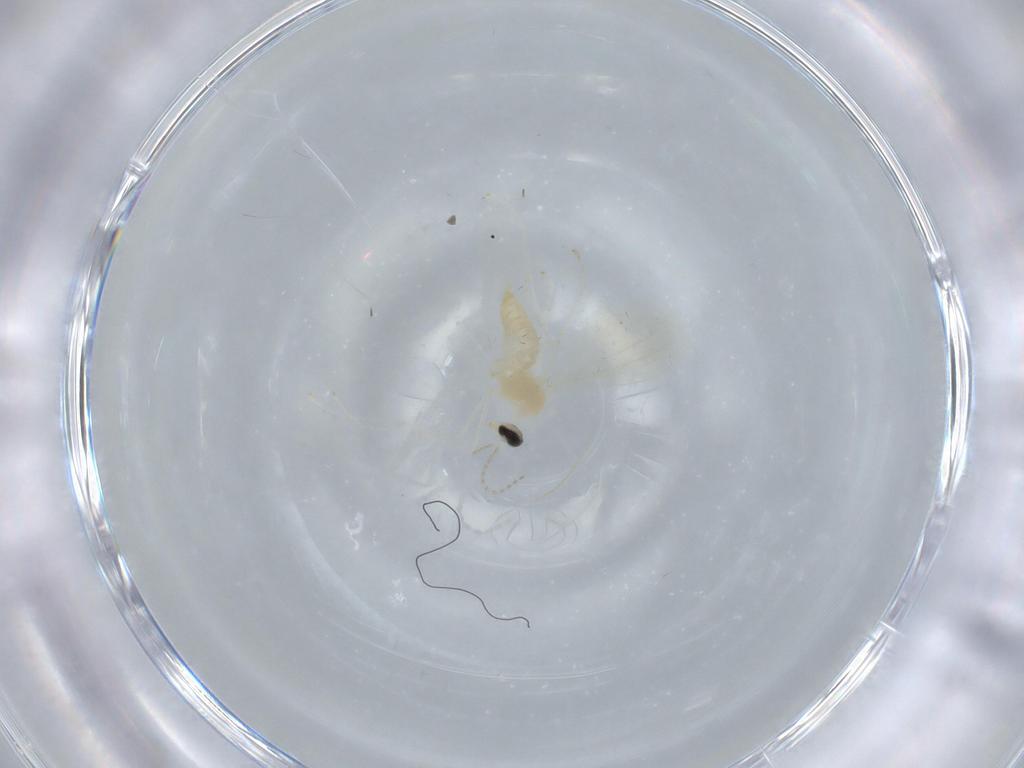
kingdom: Animalia
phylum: Arthropoda
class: Insecta
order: Diptera
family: Cecidomyiidae
